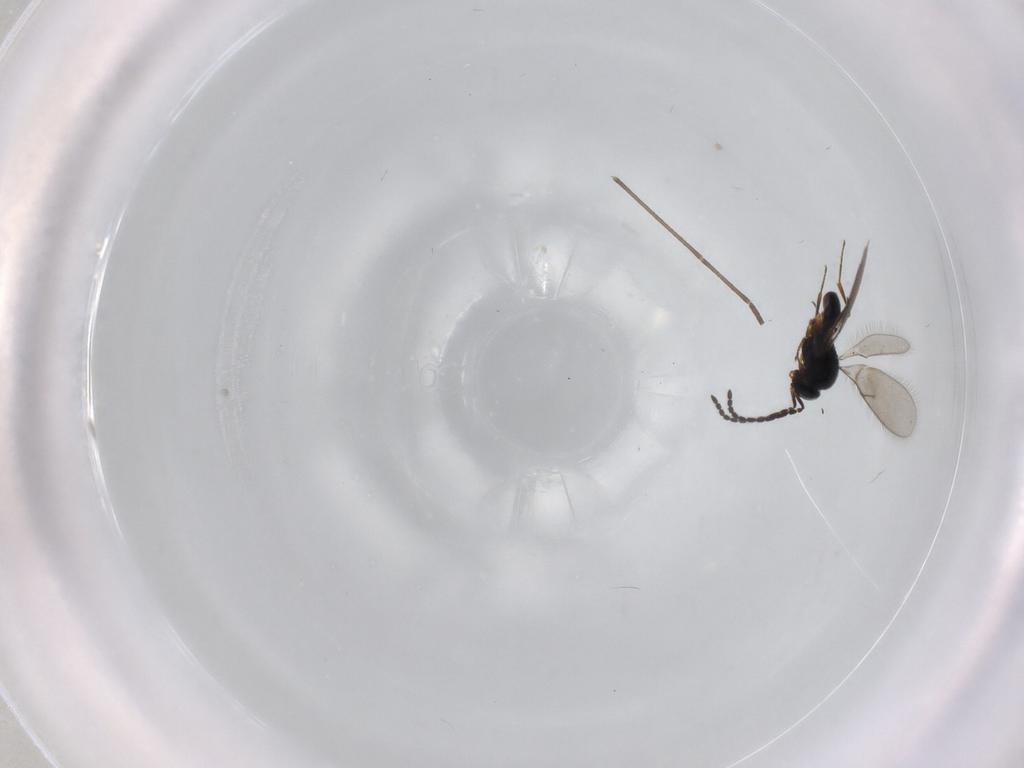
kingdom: Animalia
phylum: Arthropoda
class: Insecta
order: Hymenoptera
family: Scelionidae
